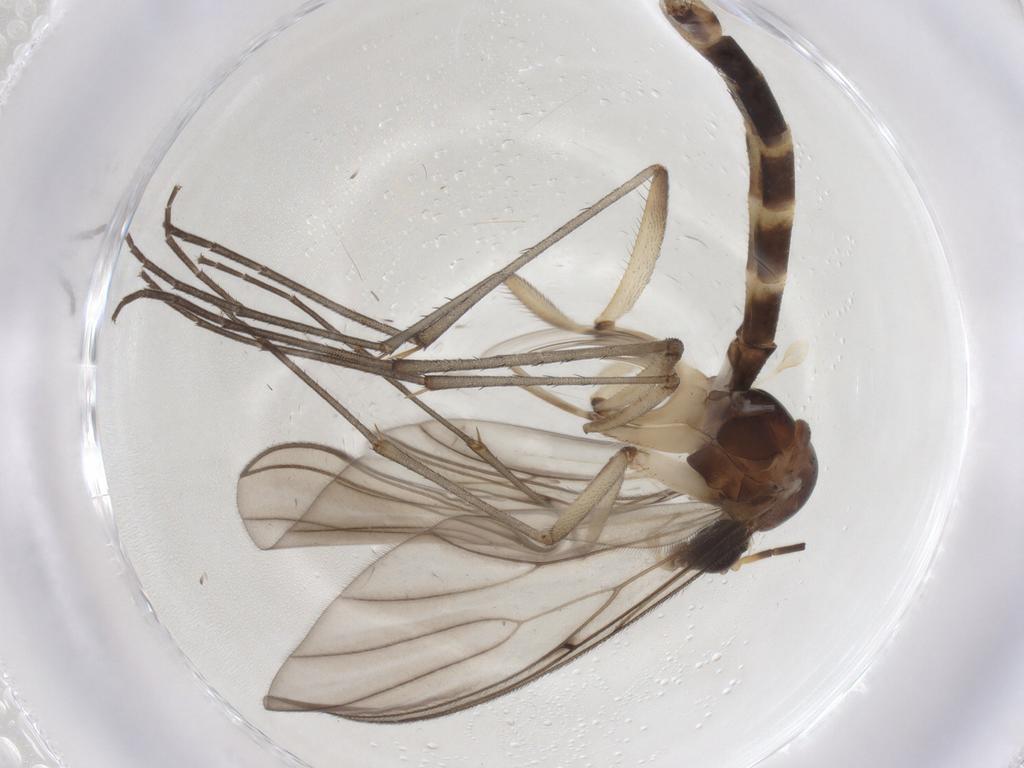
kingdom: Animalia
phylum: Arthropoda
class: Insecta
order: Diptera
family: Mycetophilidae
